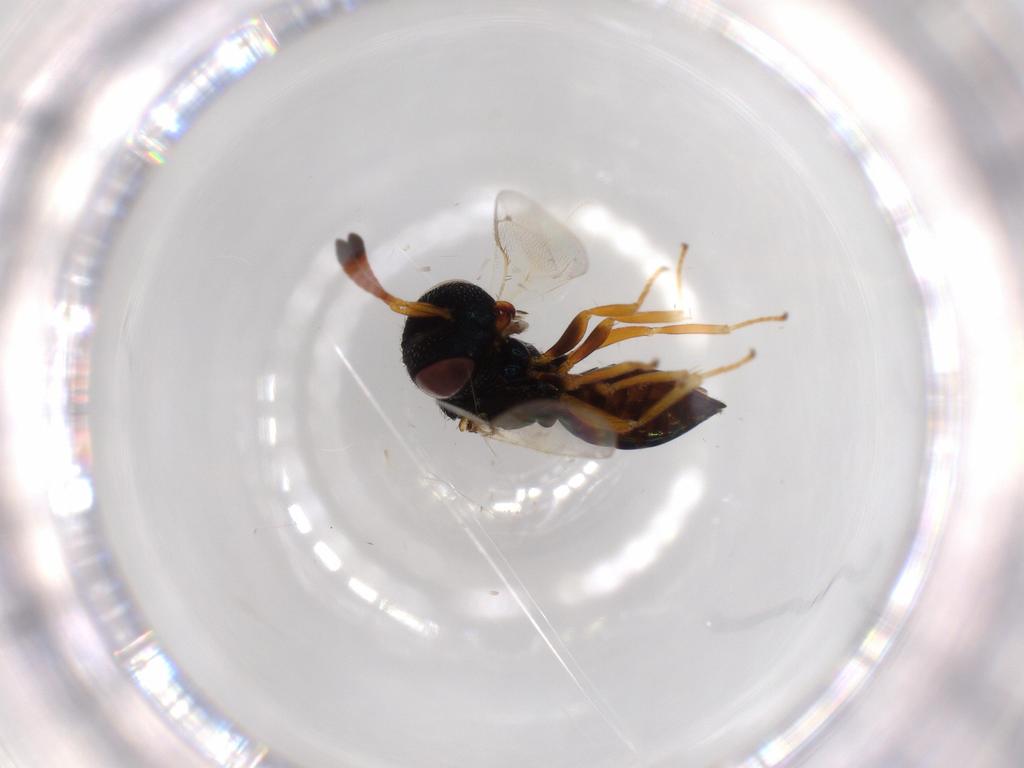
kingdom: Animalia
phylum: Arthropoda
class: Insecta
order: Hymenoptera
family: Pteromalidae
